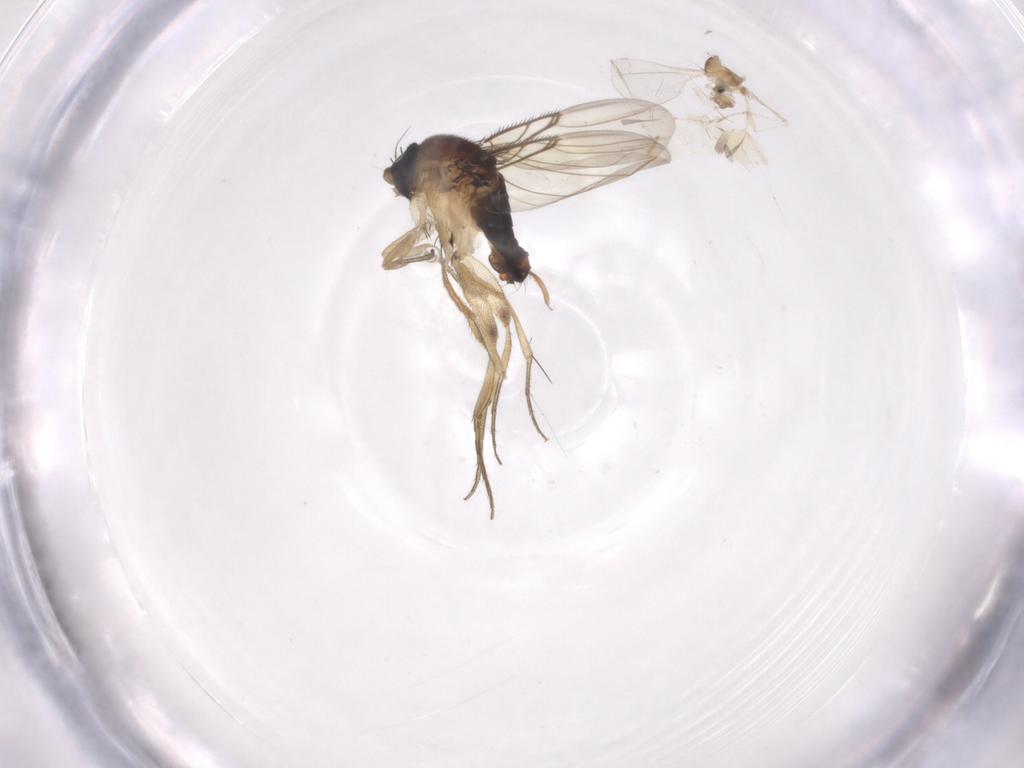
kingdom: Animalia
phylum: Arthropoda
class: Insecta
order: Diptera
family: Phoridae
